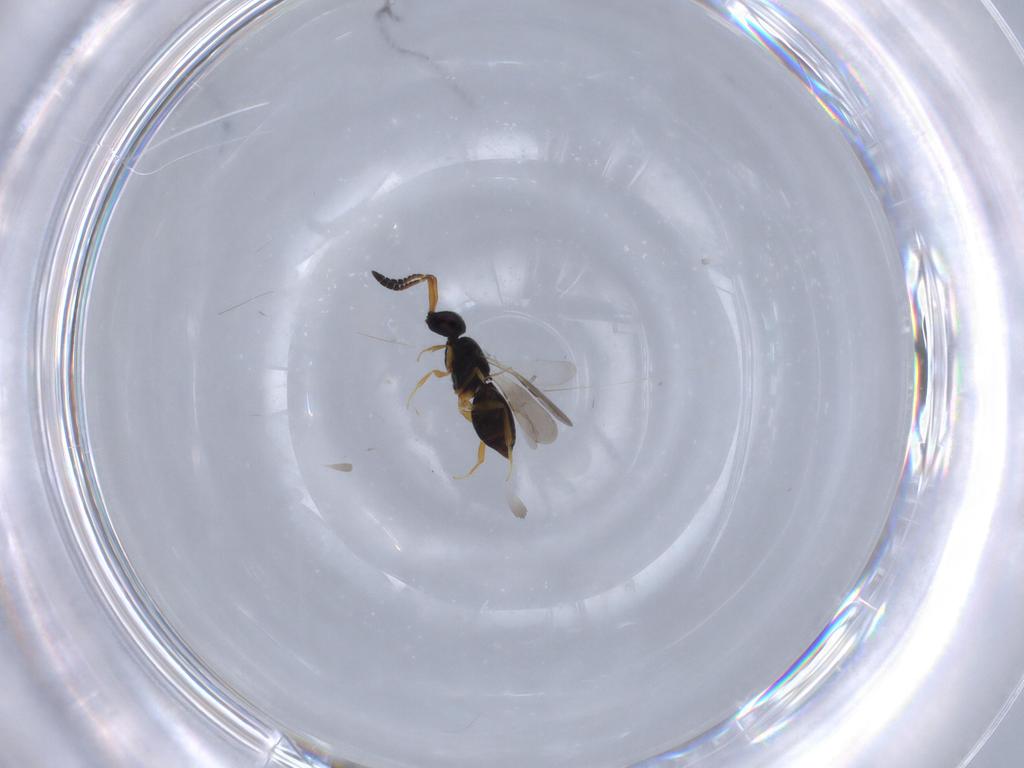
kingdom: Animalia
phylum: Arthropoda
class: Insecta
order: Hymenoptera
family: Formicidae
